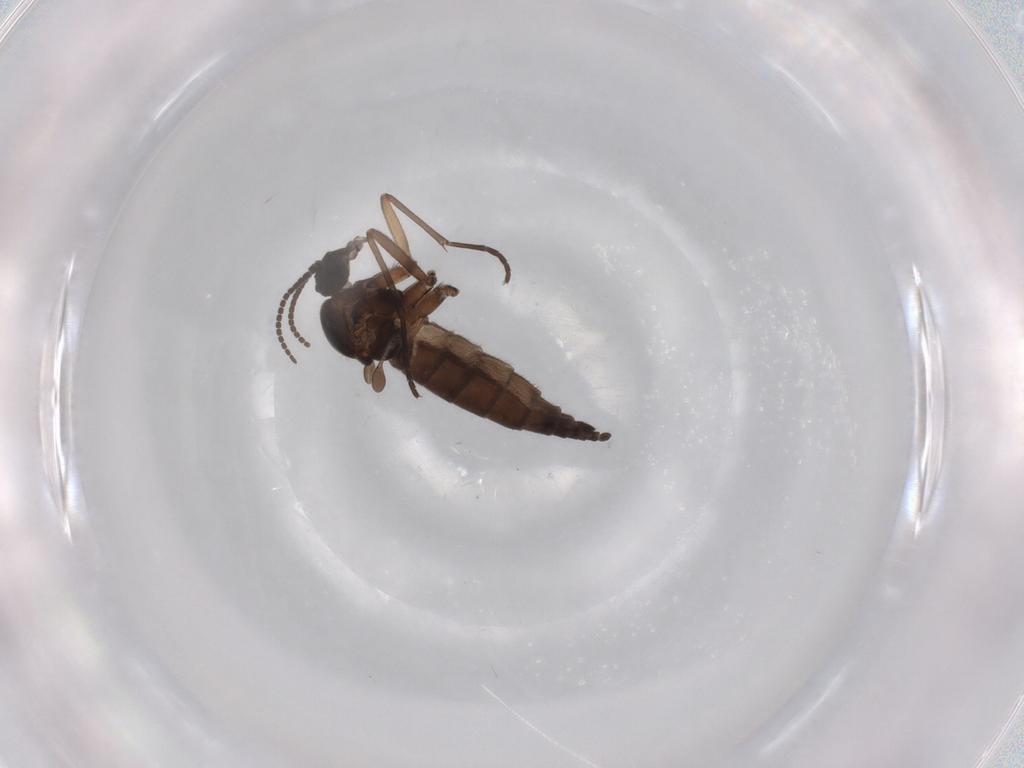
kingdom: Animalia
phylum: Arthropoda
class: Insecta
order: Diptera
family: Sciaridae
